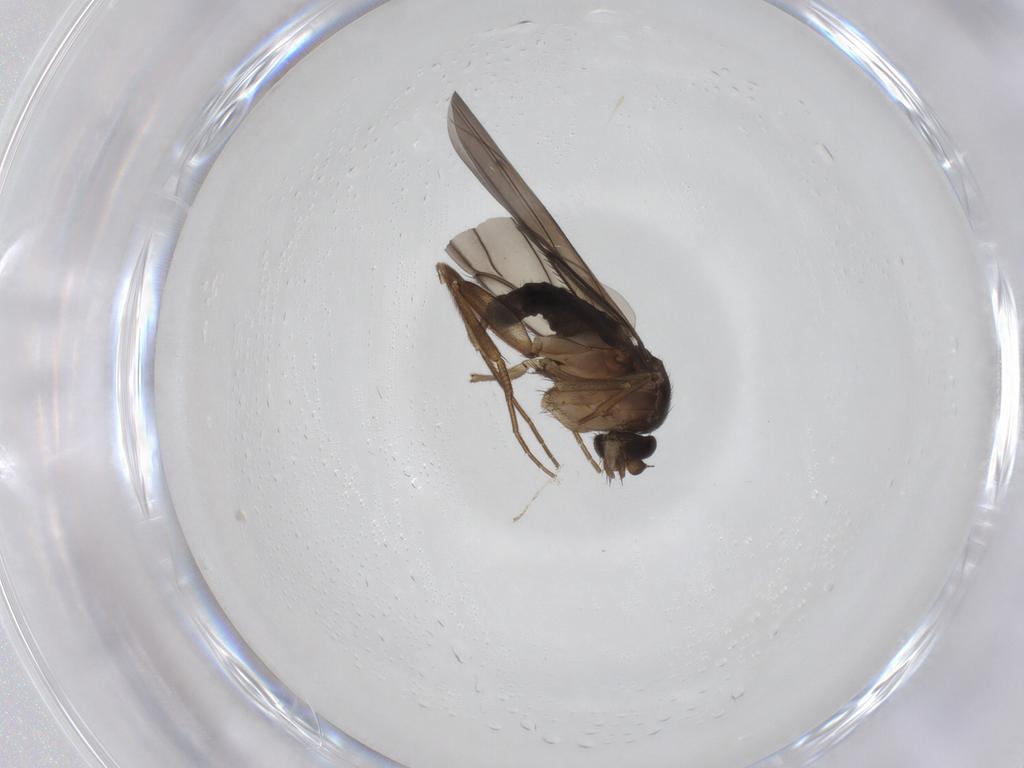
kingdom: Animalia
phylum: Arthropoda
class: Insecta
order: Diptera
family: Phoridae
